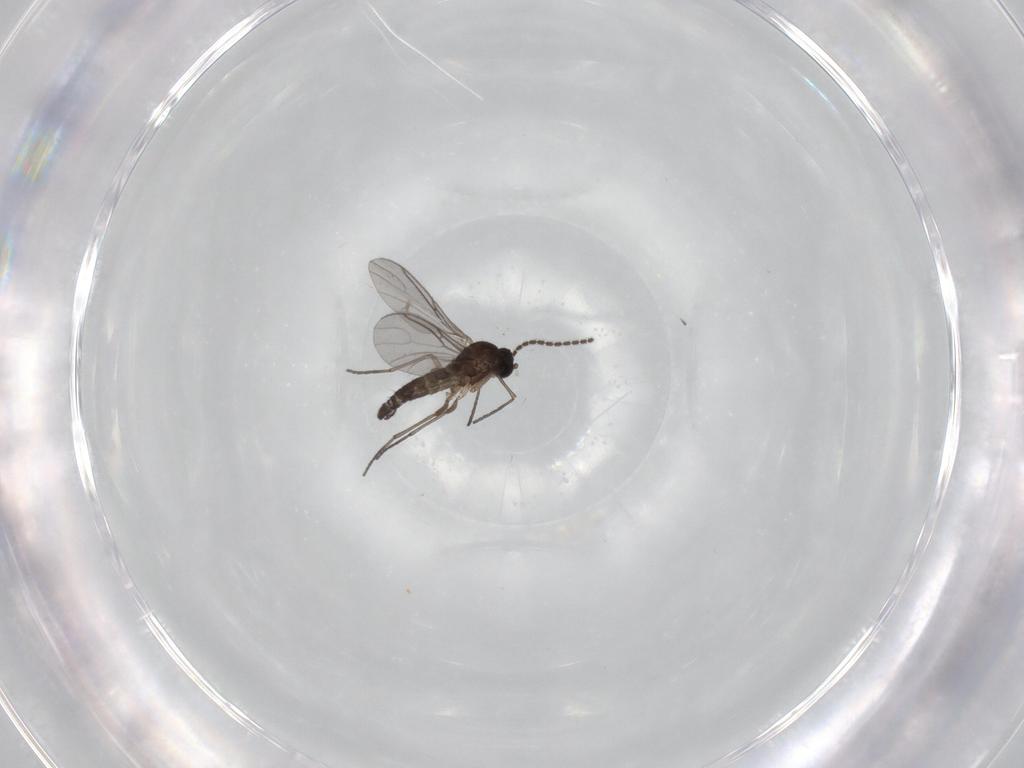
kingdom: Animalia
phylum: Arthropoda
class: Insecta
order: Diptera
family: Sciaridae
